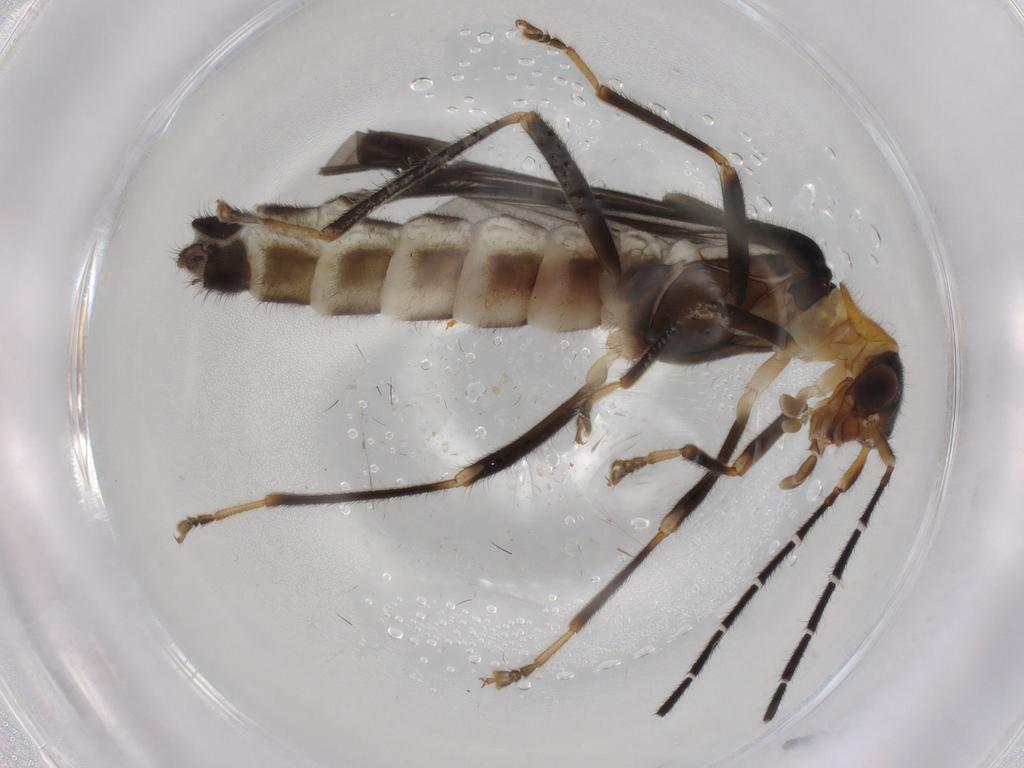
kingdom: Animalia
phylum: Arthropoda
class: Insecta
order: Coleoptera
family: Cantharidae
